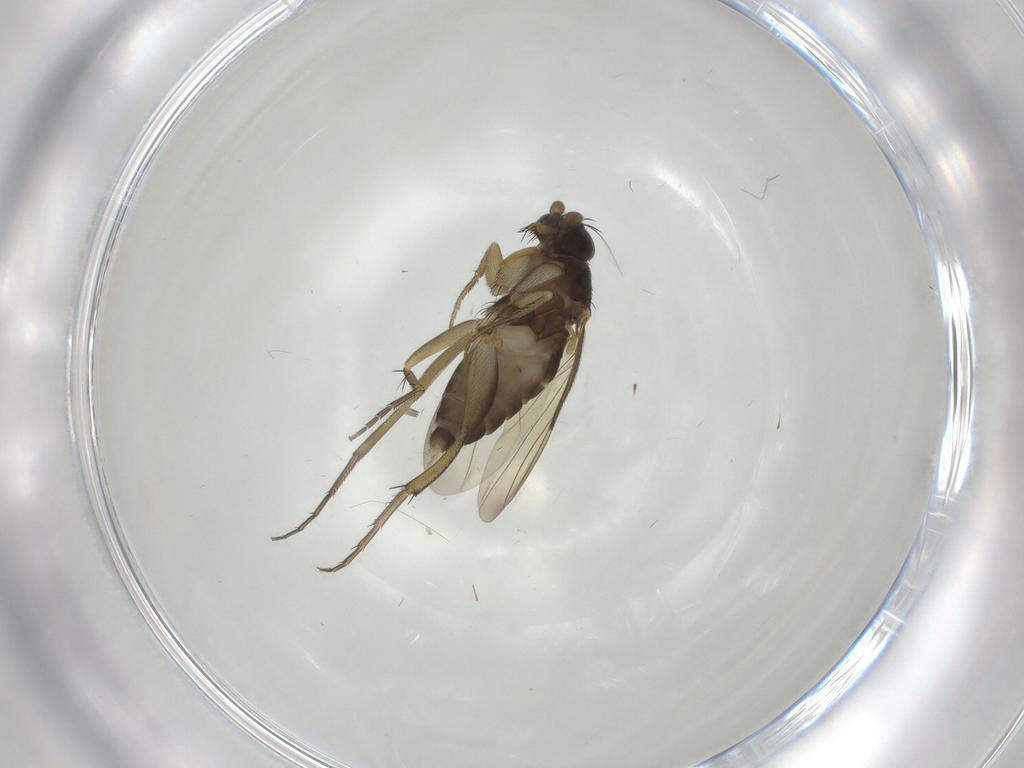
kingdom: Animalia
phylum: Arthropoda
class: Insecta
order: Diptera
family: Phoridae
